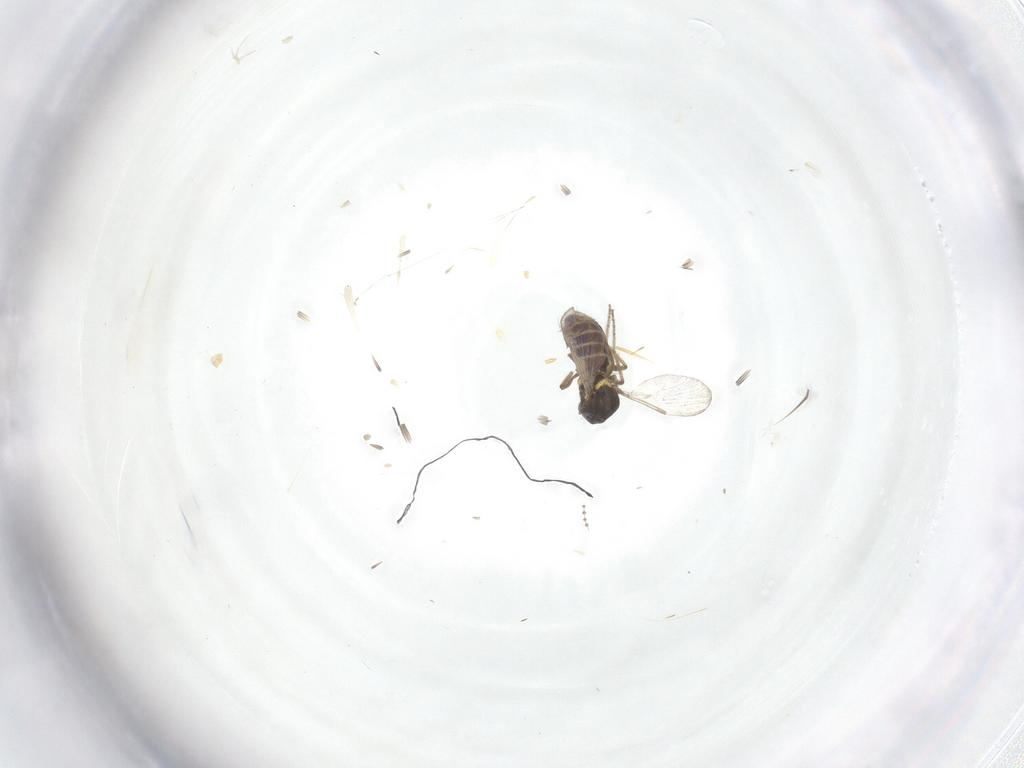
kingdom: Animalia
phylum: Arthropoda
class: Insecta
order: Diptera
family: Ceratopogonidae
